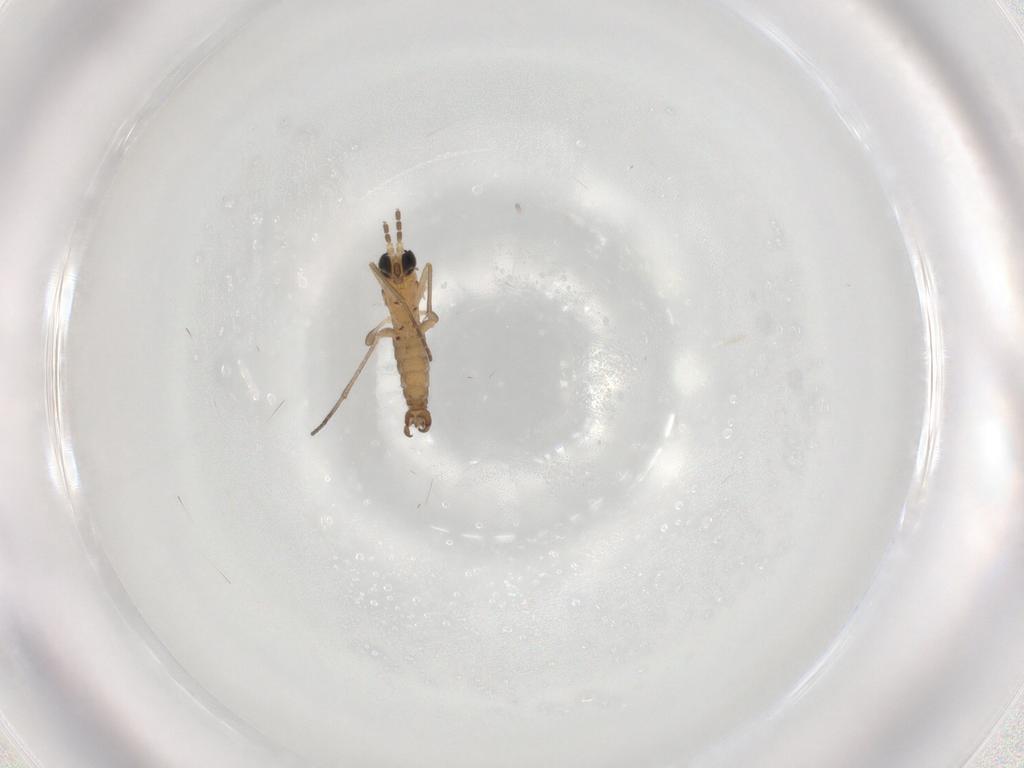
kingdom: Animalia
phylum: Arthropoda
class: Insecta
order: Diptera
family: Sciaridae
